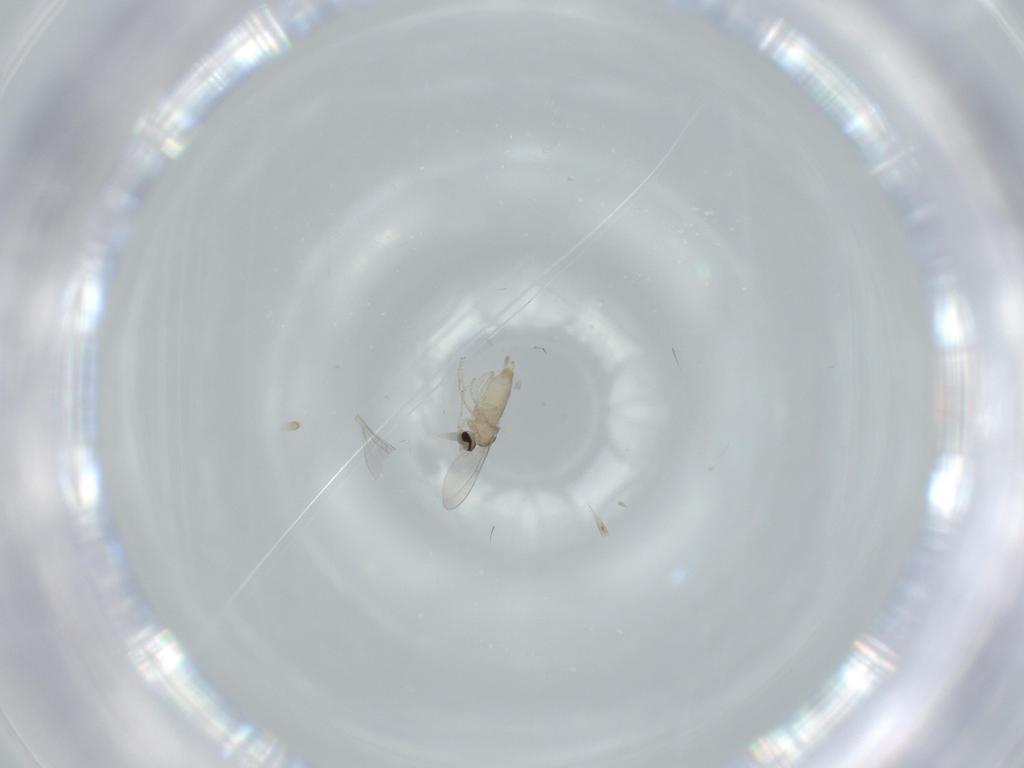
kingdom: Animalia
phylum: Arthropoda
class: Insecta
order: Diptera
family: Cecidomyiidae
